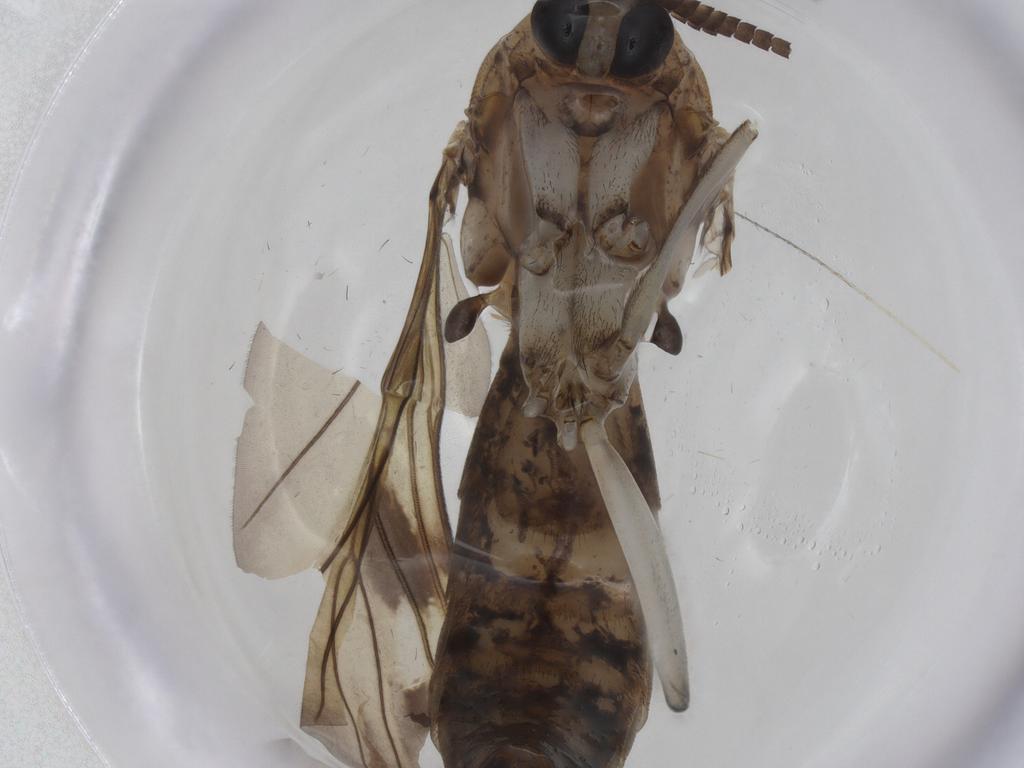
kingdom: Animalia
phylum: Arthropoda
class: Insecta
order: Diptera
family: Keroplatidae
